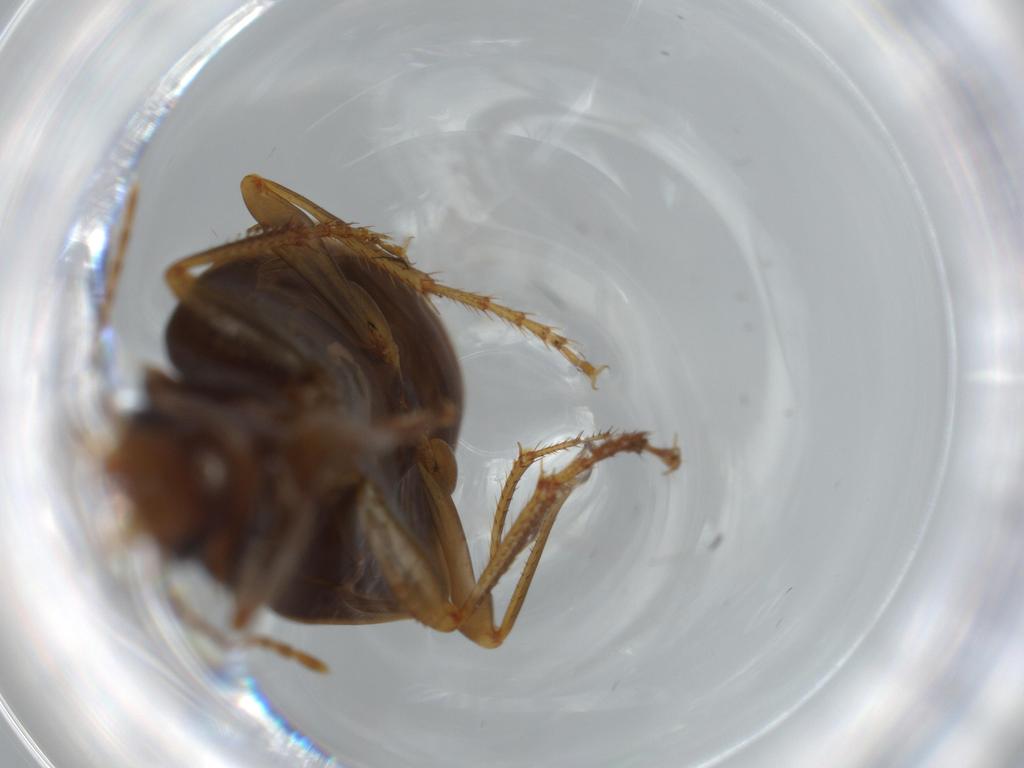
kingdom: Animalia
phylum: Arthropoda
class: Insecta
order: Coleoptera
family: Carabidae
